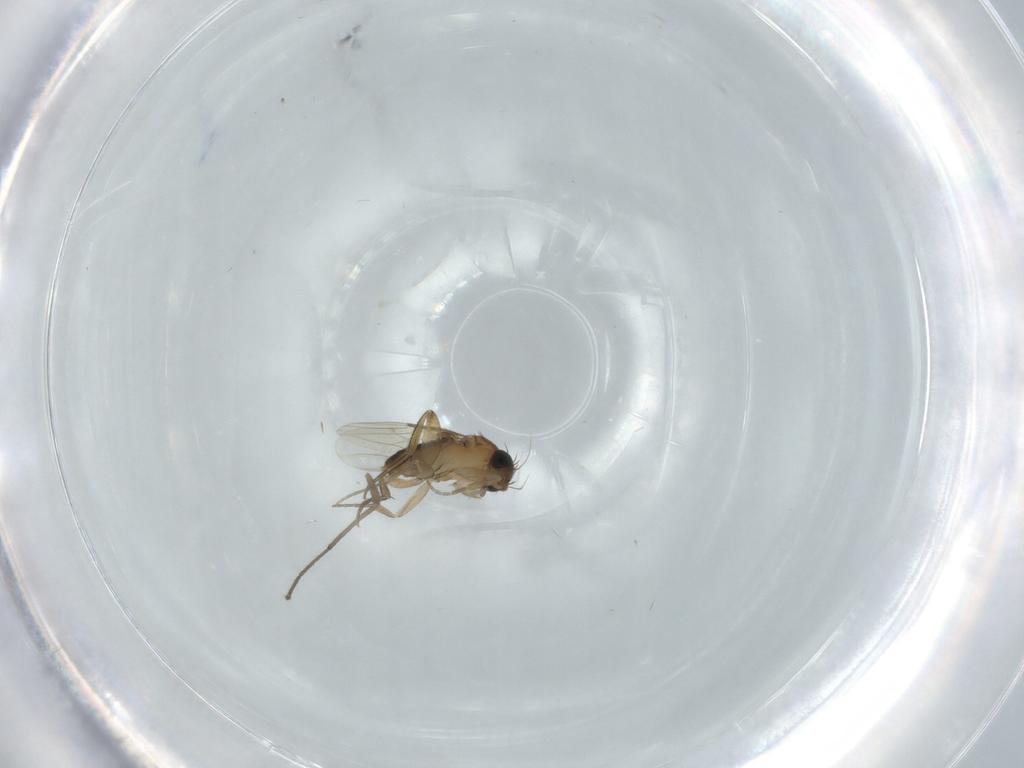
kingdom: Animalia
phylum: Arthropoda
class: Insecta
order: Diptera
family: Phoridae
